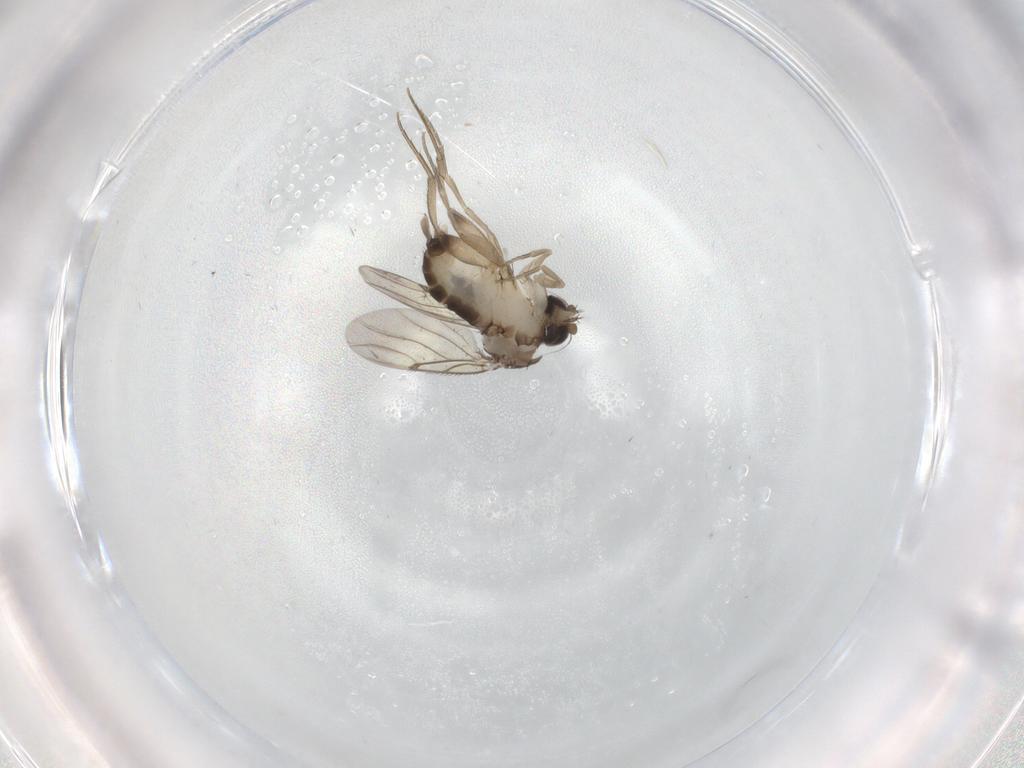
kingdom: Animalia
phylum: Arthropoda
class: Insecta
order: Diptera
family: Phoridae
